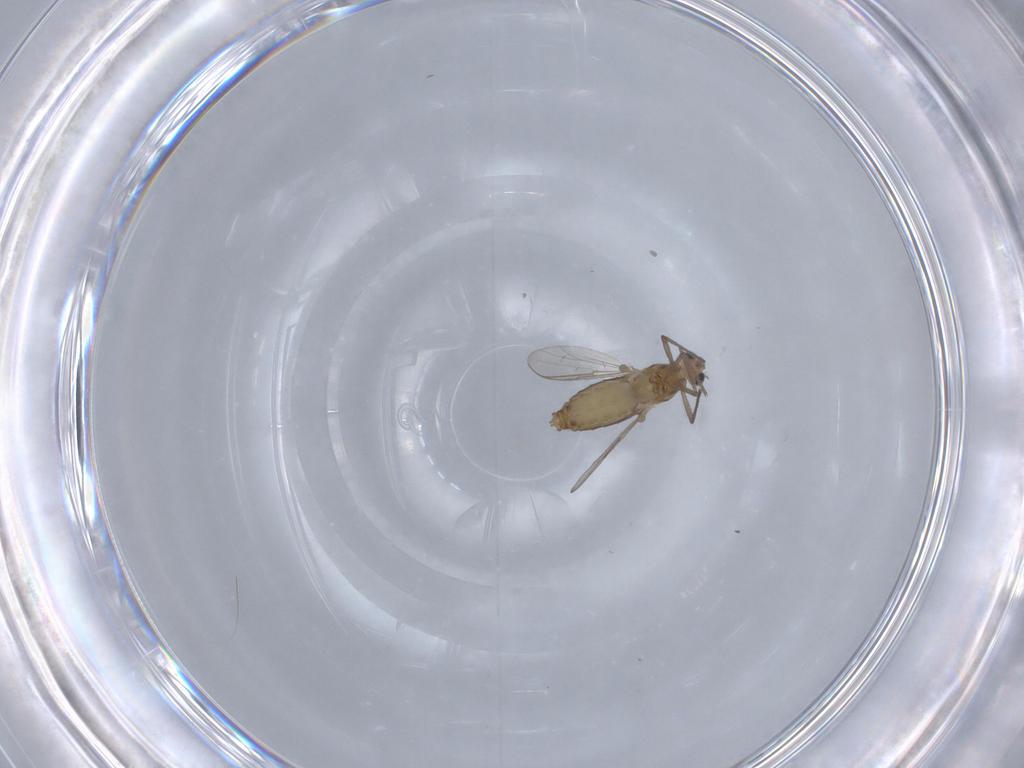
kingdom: Animalia
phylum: Arthropoda
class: Insecta
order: Diptera
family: Chironomidae
